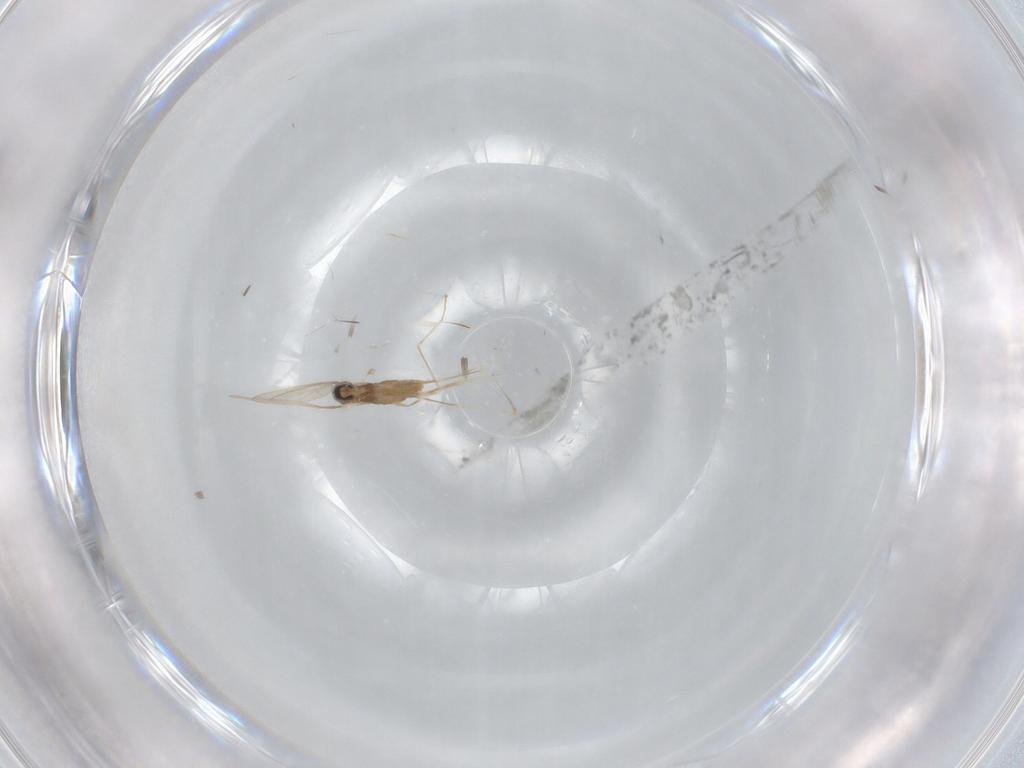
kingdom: Animalia
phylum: Arthropoda
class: Insecta
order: Diptera
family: Cecidomyiidae
